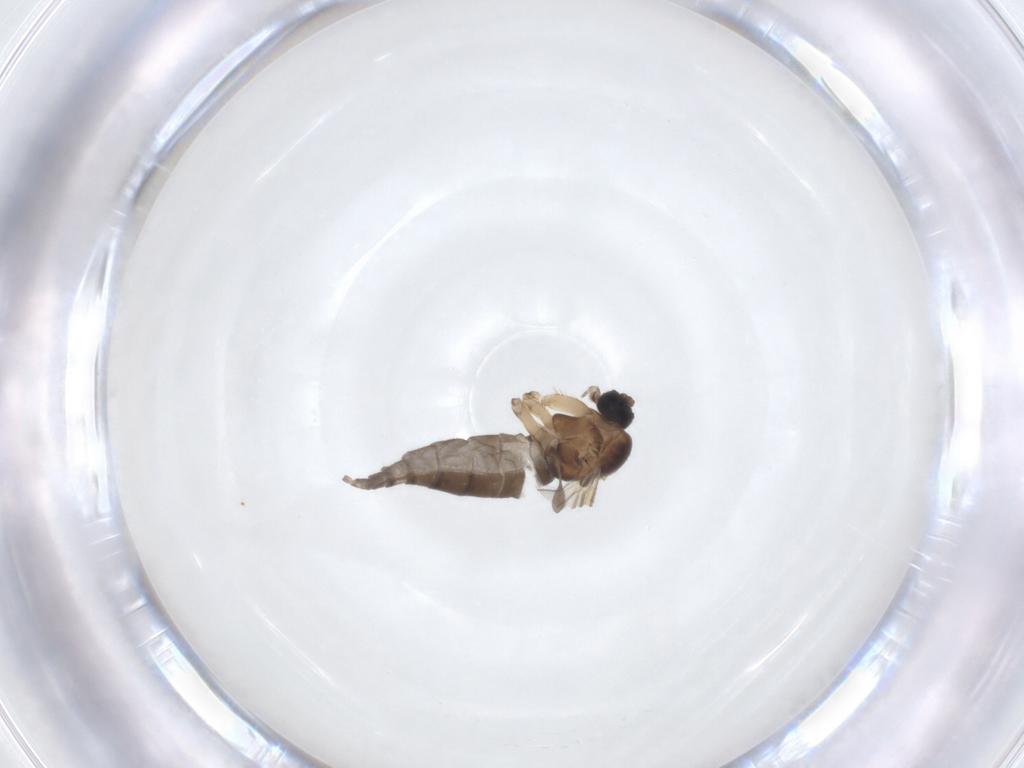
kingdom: Animalia
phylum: Arthropoda
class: Insecta
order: Diptera
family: Sciaridae
